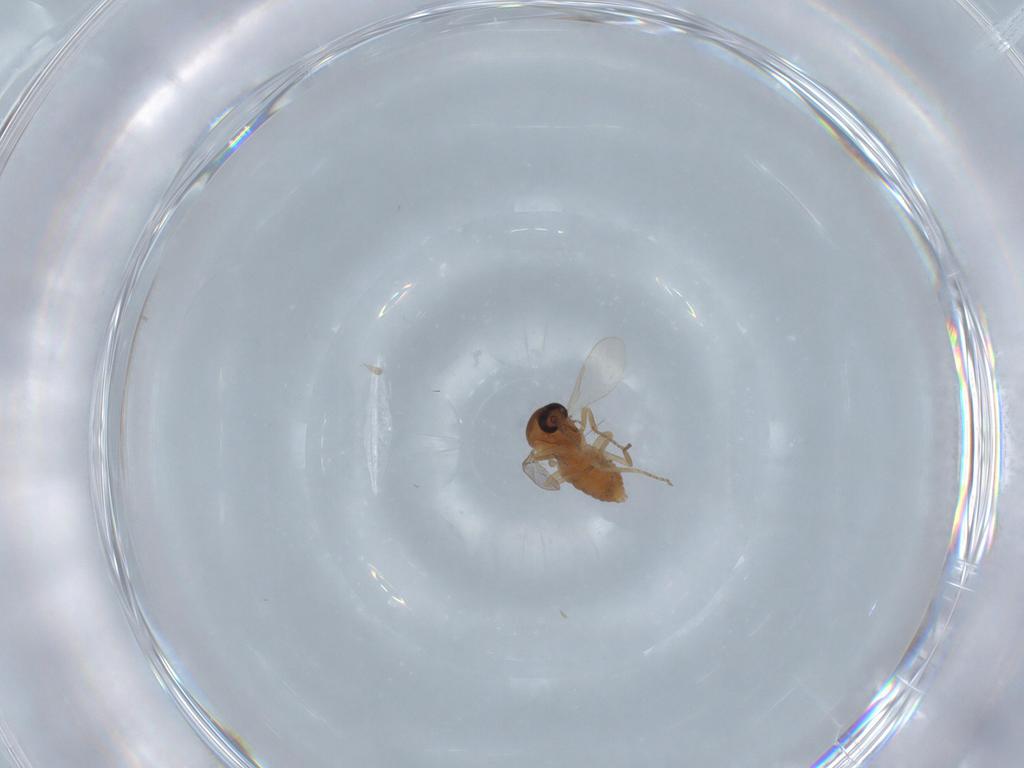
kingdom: Animalia
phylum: Arthropoda
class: Insecta
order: Diptera
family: Ceratopogonidae
